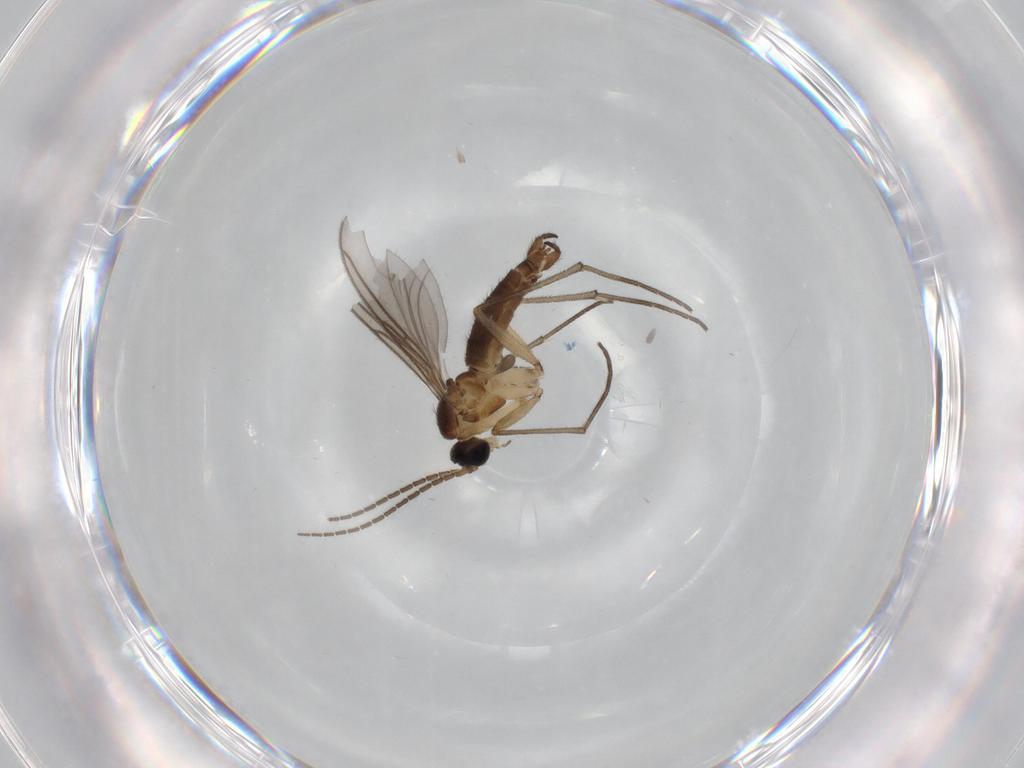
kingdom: Animalia
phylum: Arthropoda
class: Insecta
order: Diptera
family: Sciaridae
